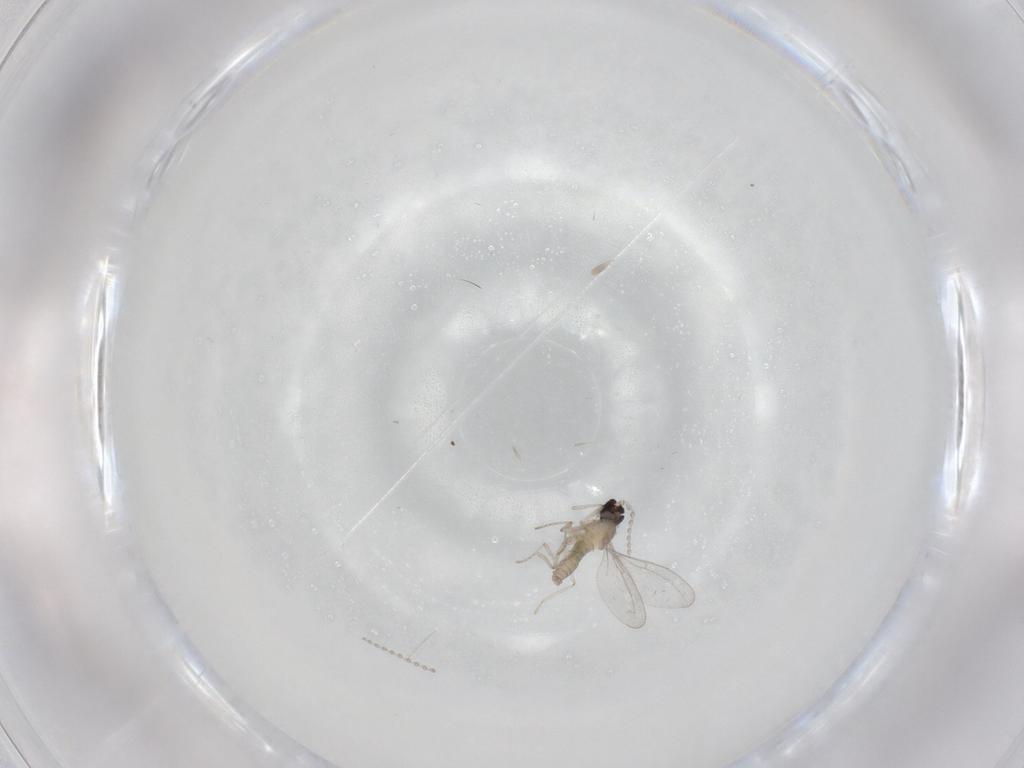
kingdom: Animalia
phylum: Arthropoda
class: Insecta
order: Diptera
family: Cecidomyiidae
